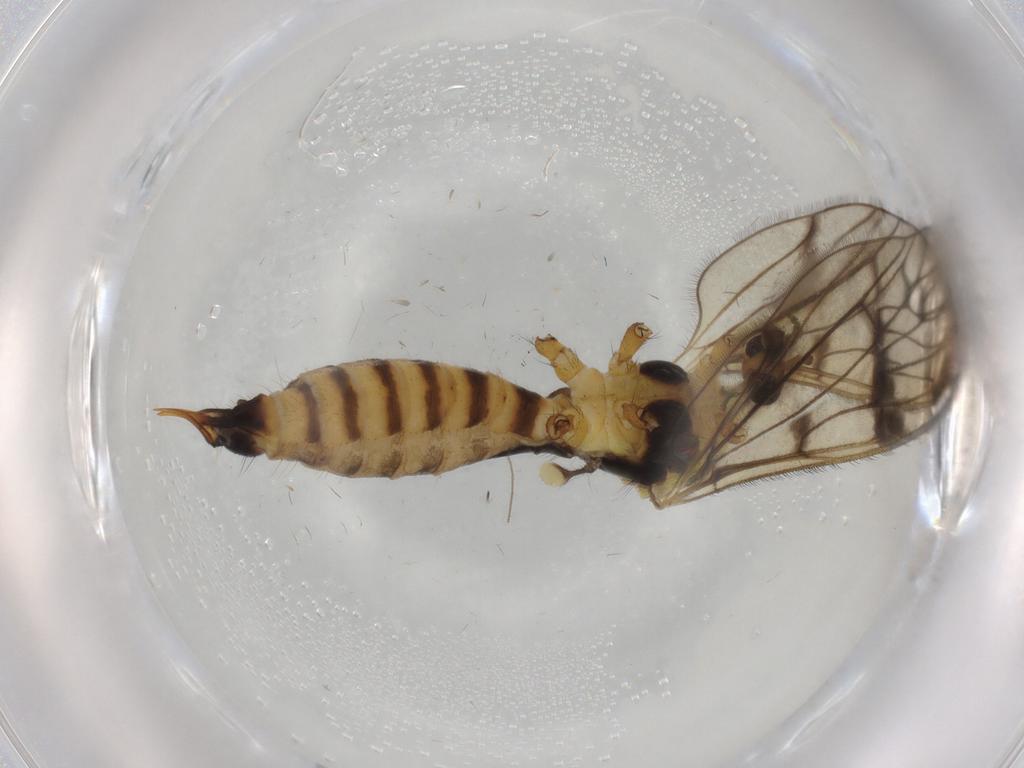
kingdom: Animalia
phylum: Arthropoda
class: Insecta
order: Diptera
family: Limoniidae
